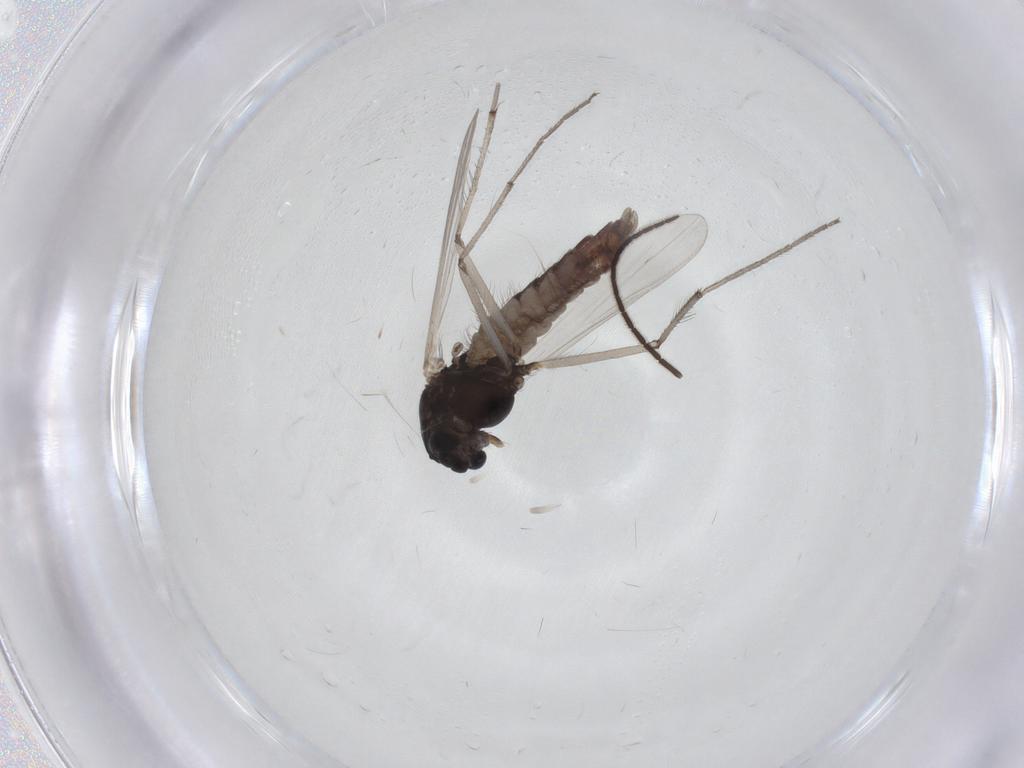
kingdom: Animalia
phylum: Arthropoda
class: Insecta
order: Diptera
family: Chironomidae
